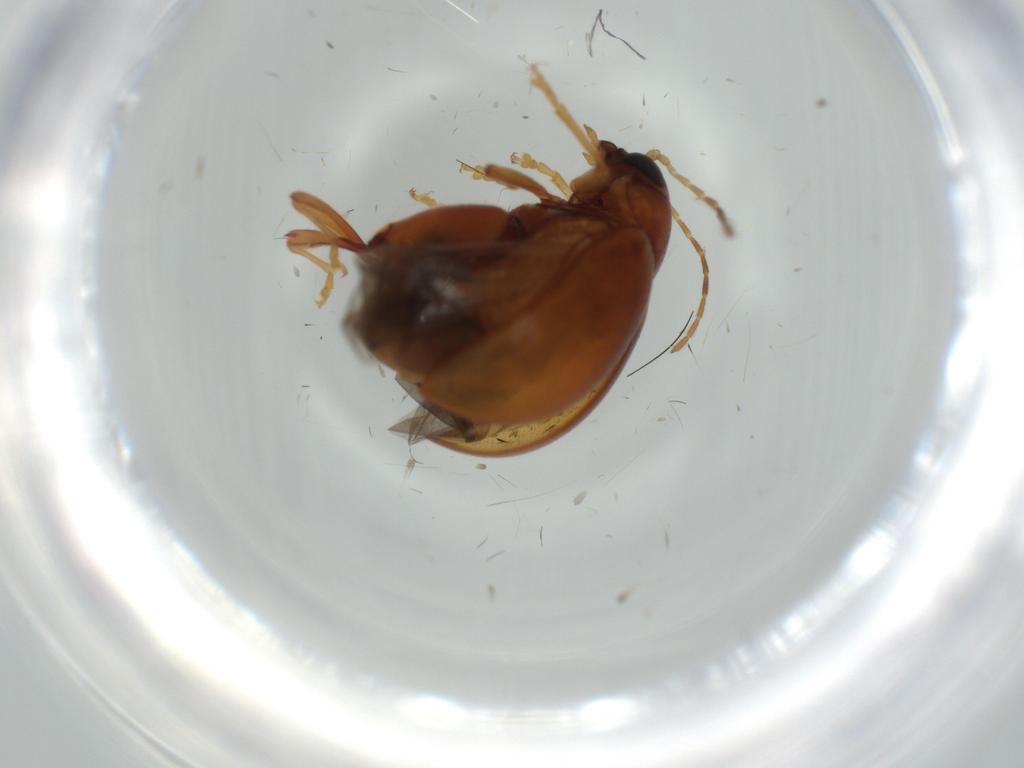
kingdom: Animalia
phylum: Arthropoda
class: Insecta
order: Coleoptera
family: Chrysomelidae
